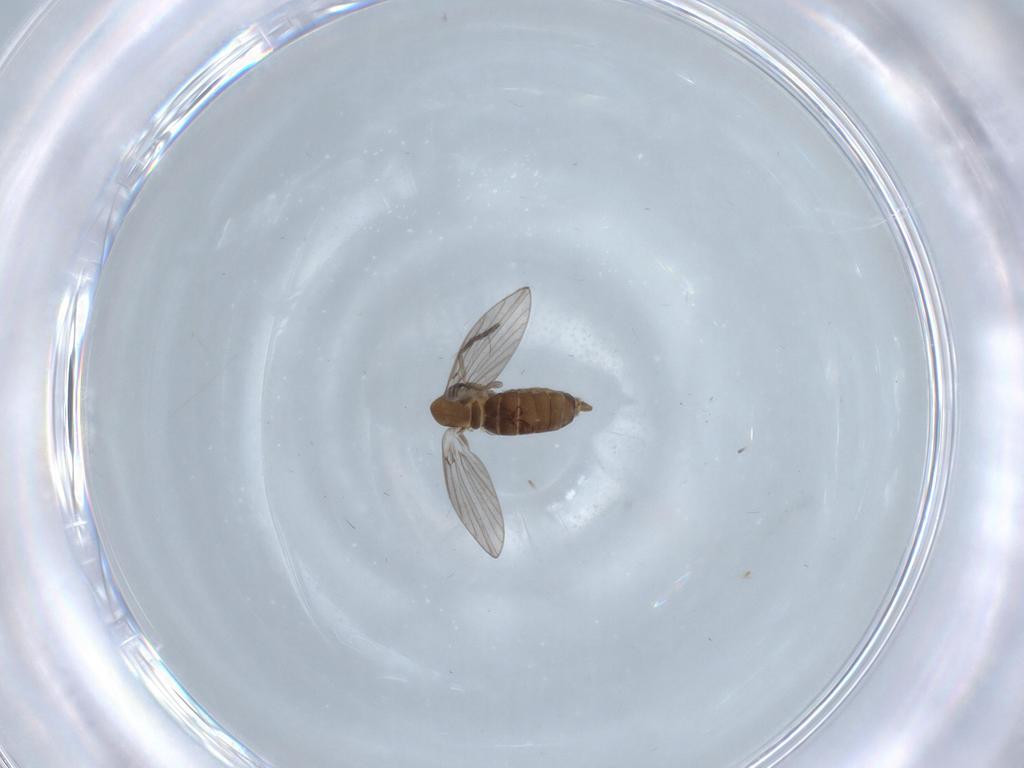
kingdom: Animalia
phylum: Arthropoda
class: Insecta
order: Diptera
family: Psychodidae
